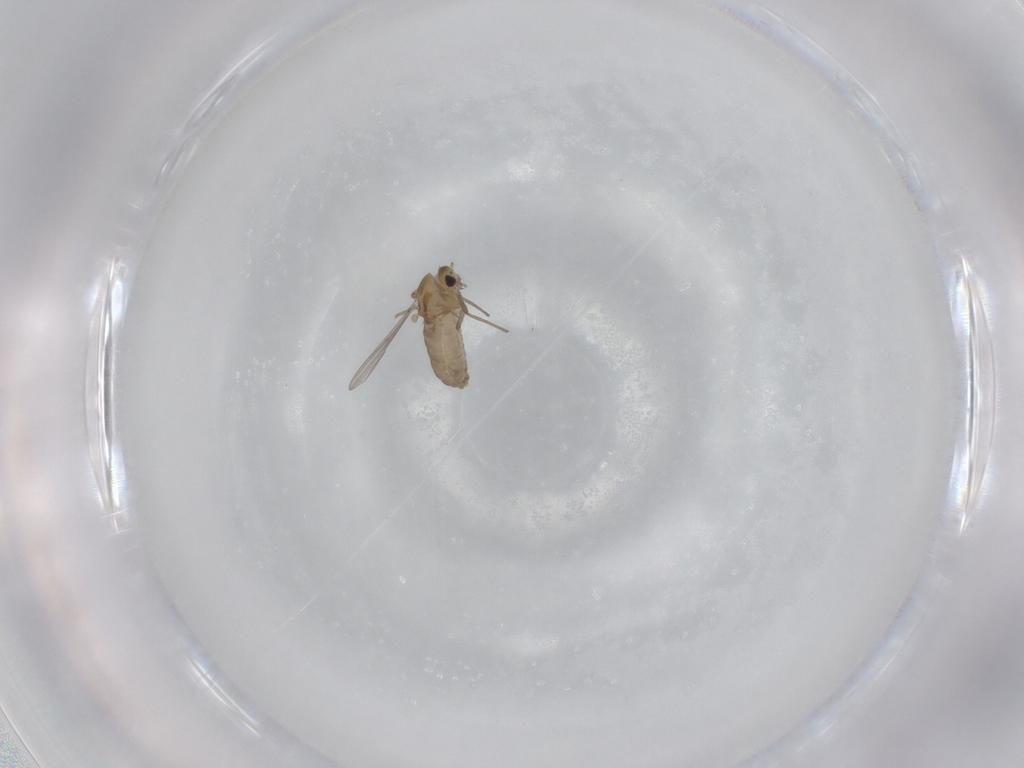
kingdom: Animalia
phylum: Arthropoda
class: Insecta
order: Diptera
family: Chironomidae
